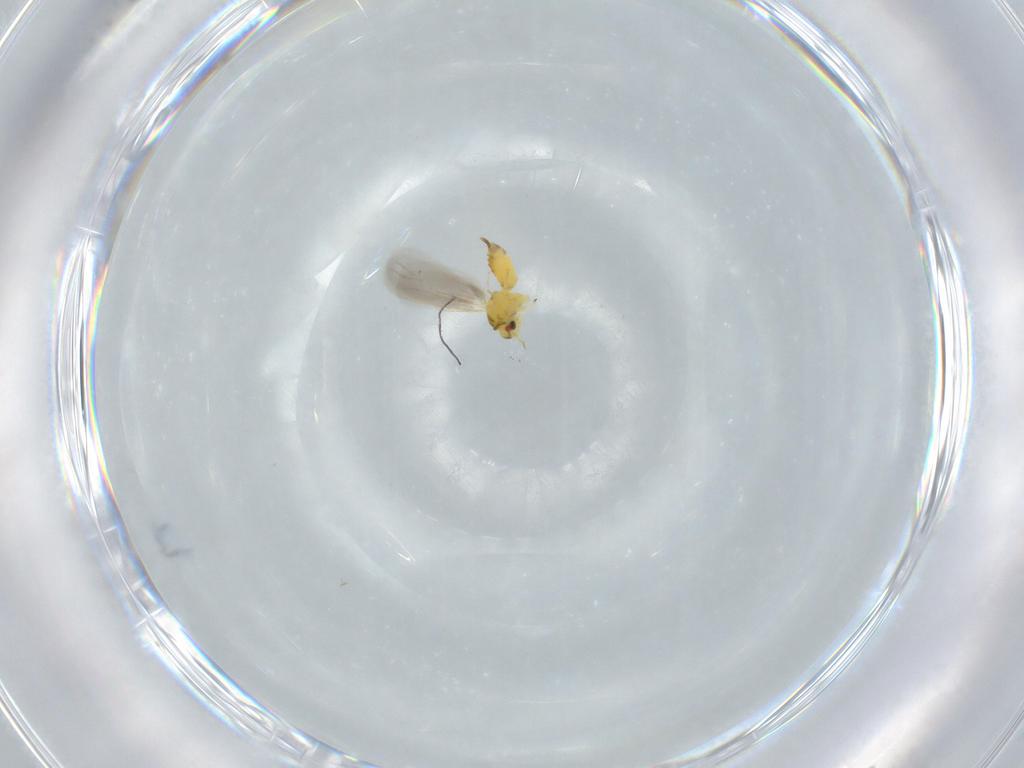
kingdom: Animalia
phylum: Arthropoda
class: Insecta
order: Hemiptera
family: Aleyrodidae
